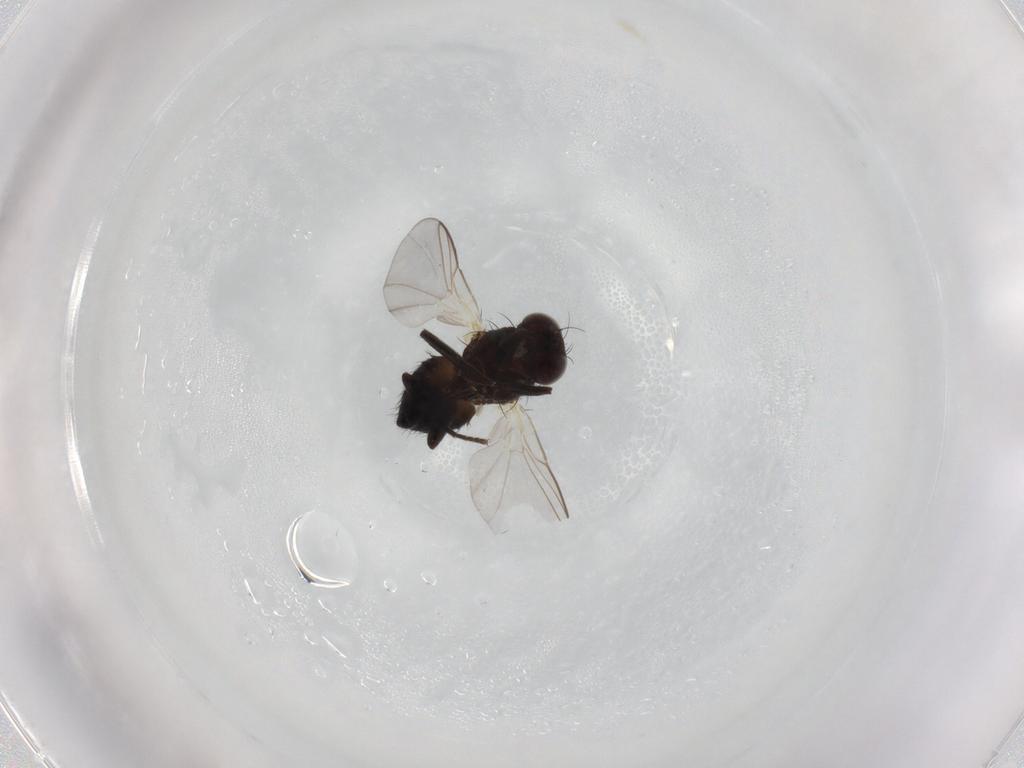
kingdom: Animalia
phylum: Arthropoda
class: Insecta
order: Diptera
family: Agromyzidae
